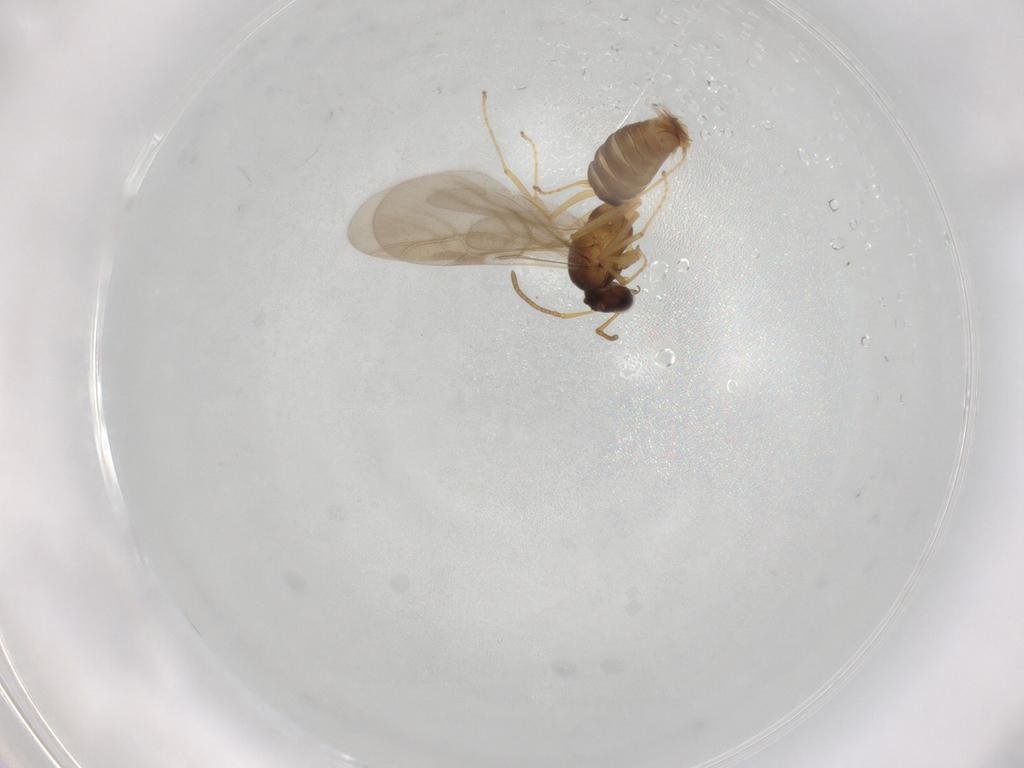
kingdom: Animalia
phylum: Arthropoda
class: Insecta
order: Hymenoptera
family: Formicidae
